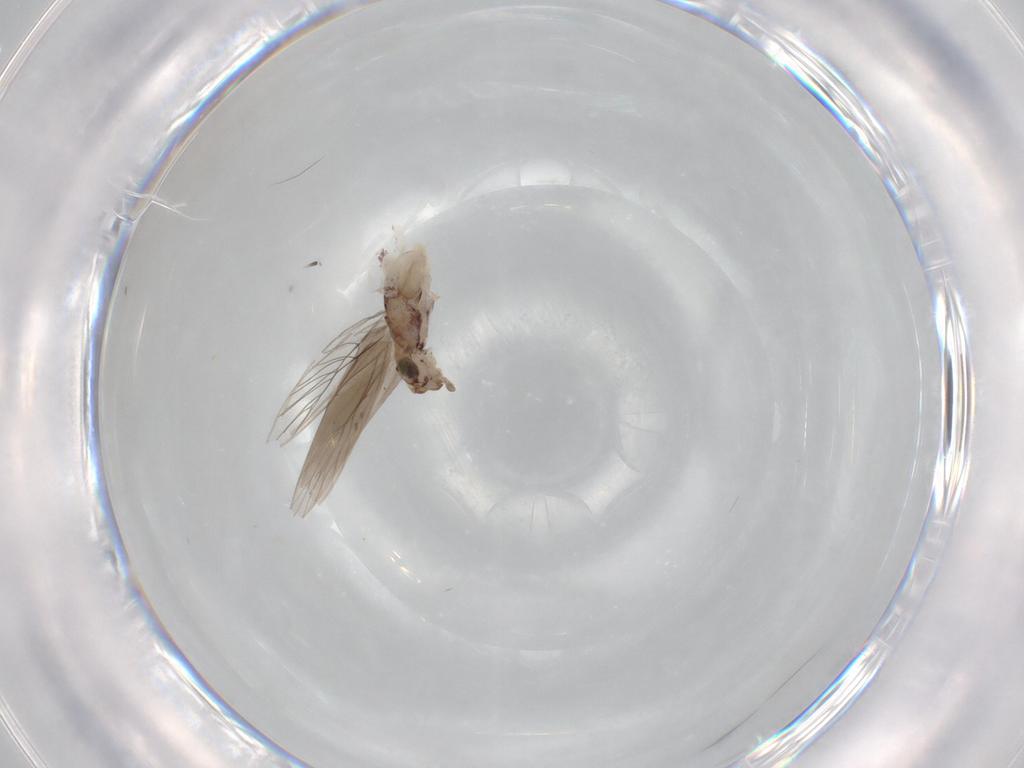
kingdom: Animalia
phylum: Arthropoda
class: Insecta
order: Psocodea
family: Lepidopsocidae
